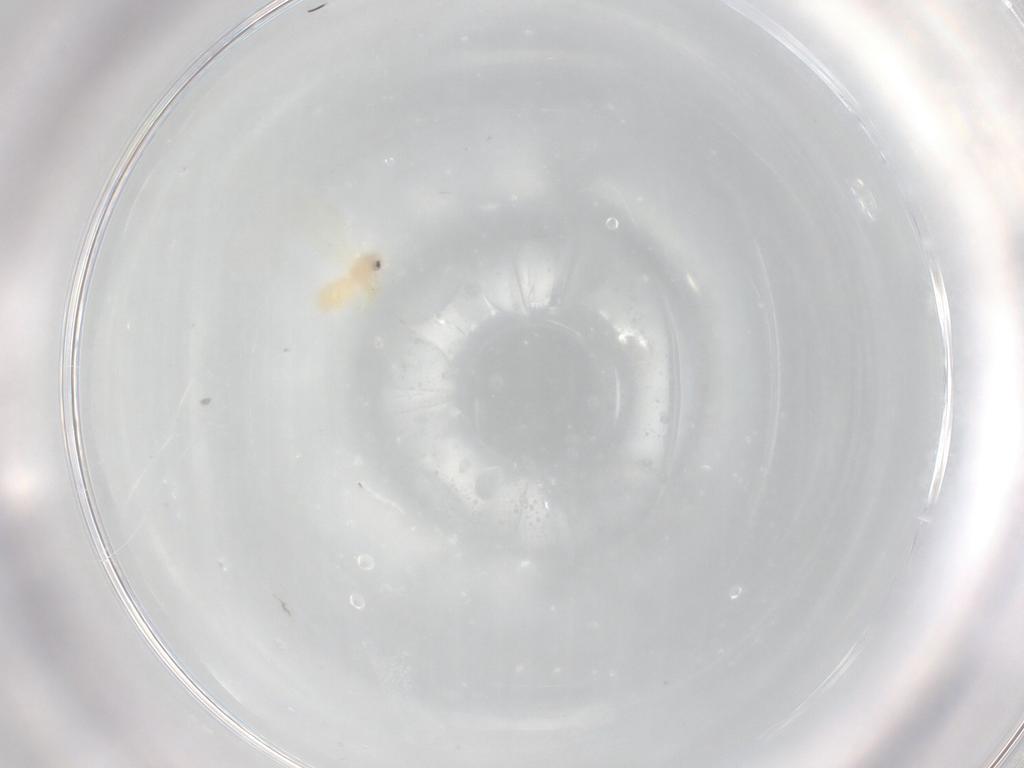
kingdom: Animalia
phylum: Arthropoda
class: Insecta
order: Hemiptera
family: Aleyrodidae
